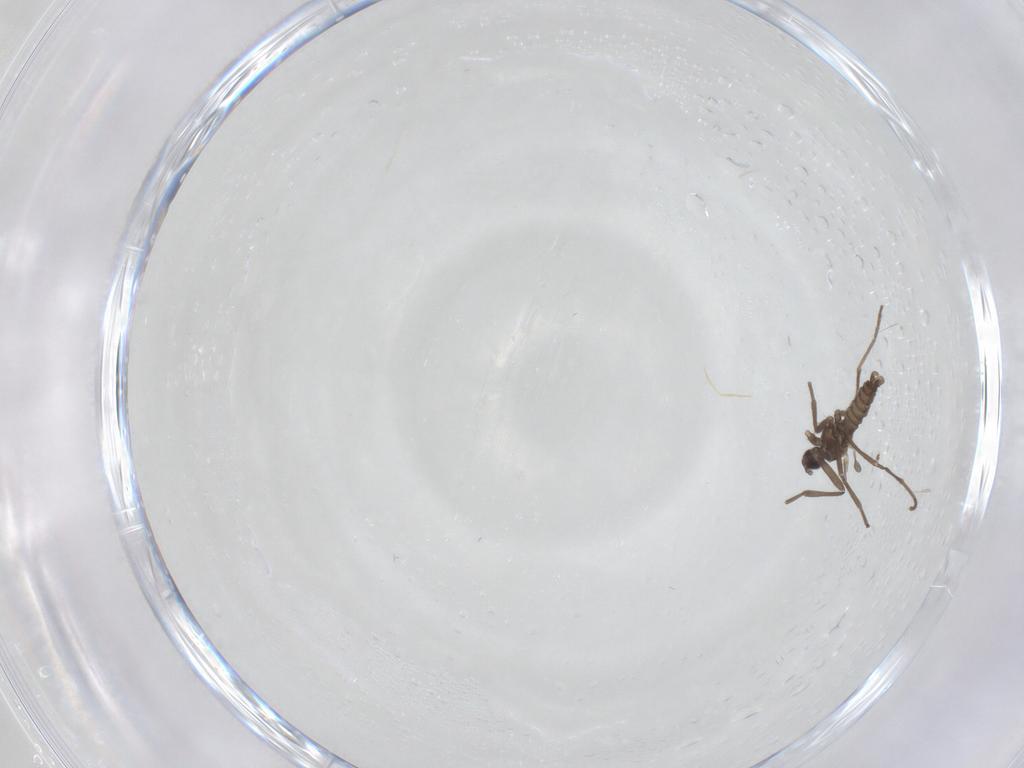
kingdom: Animalia
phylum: Arthropoda
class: Insecta
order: Diptera
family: Cecidomyiidae
